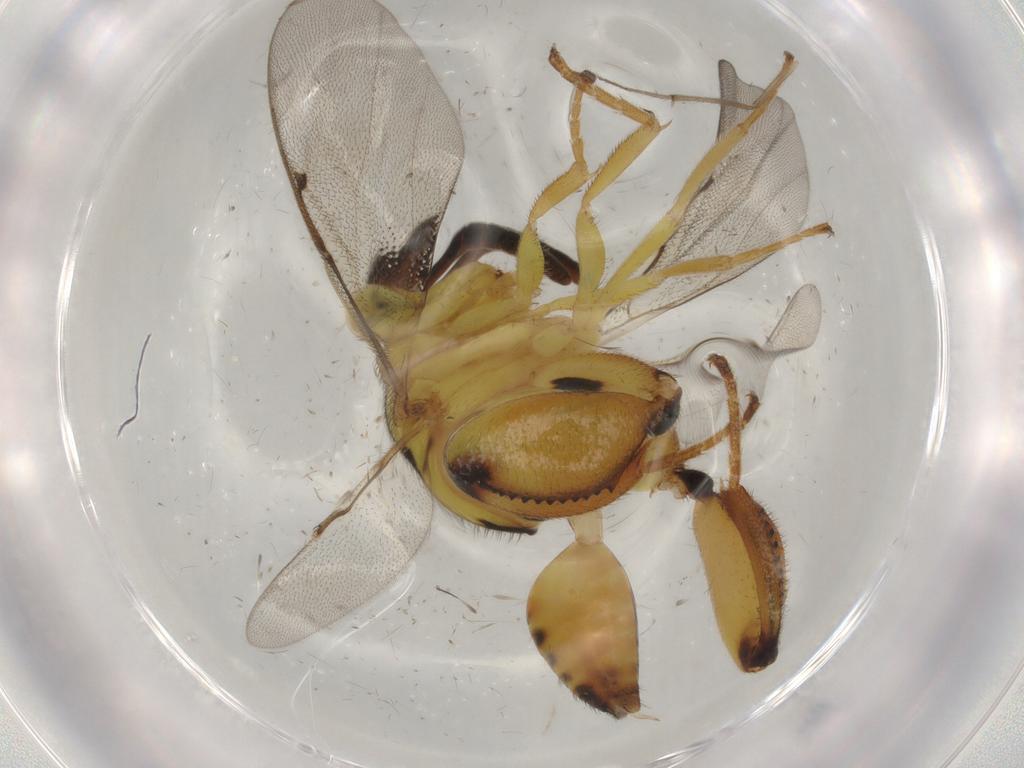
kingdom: Animalia
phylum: Arthropoda
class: Insecta
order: Hymenoptera
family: Platygastridae
